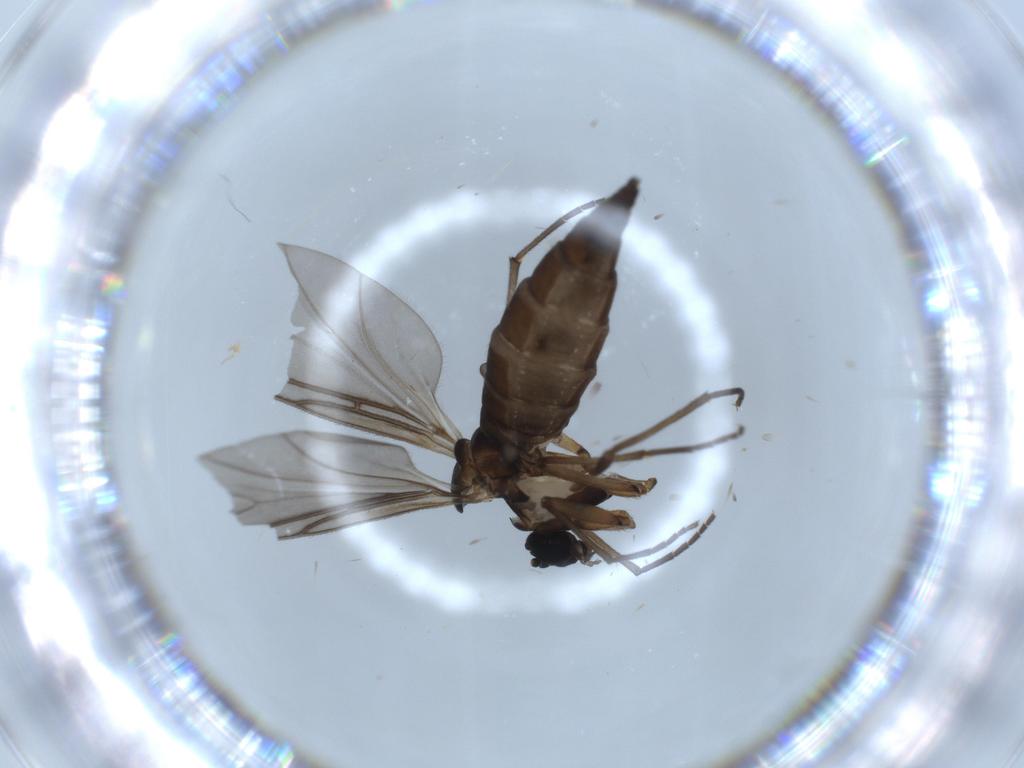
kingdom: Animalia
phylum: Arthropoda
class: Insecta
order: Diptera
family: Sciaridae
